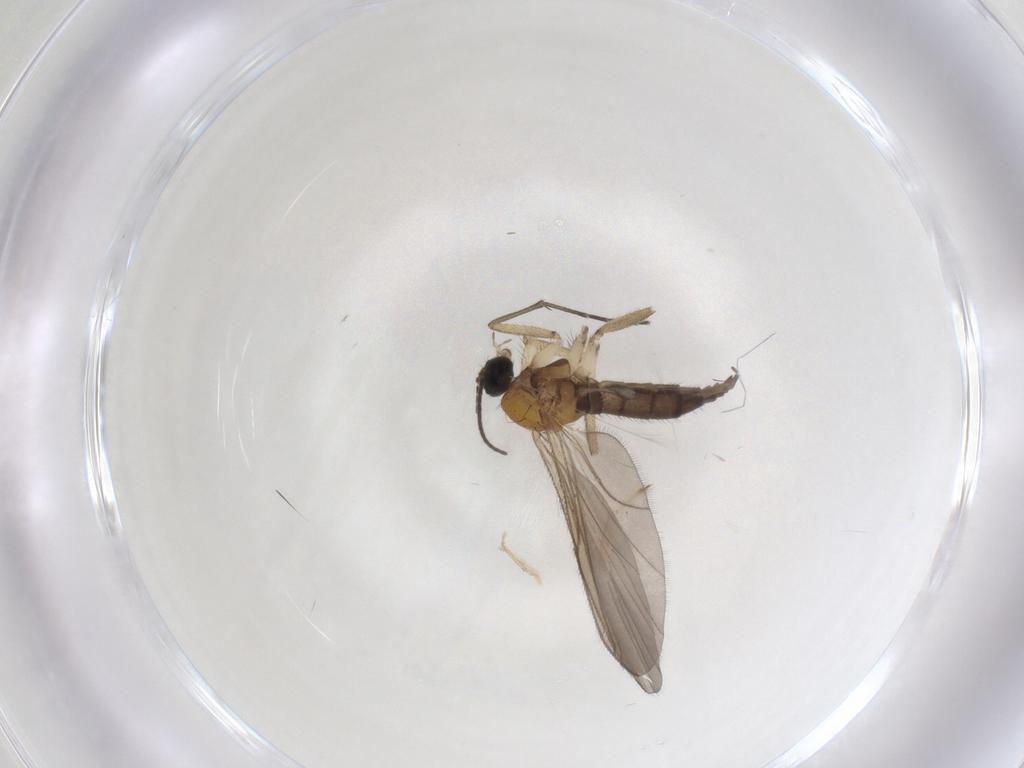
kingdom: Animalia
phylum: Arthropoda
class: Insecta
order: Diptera
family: Sciaridae
